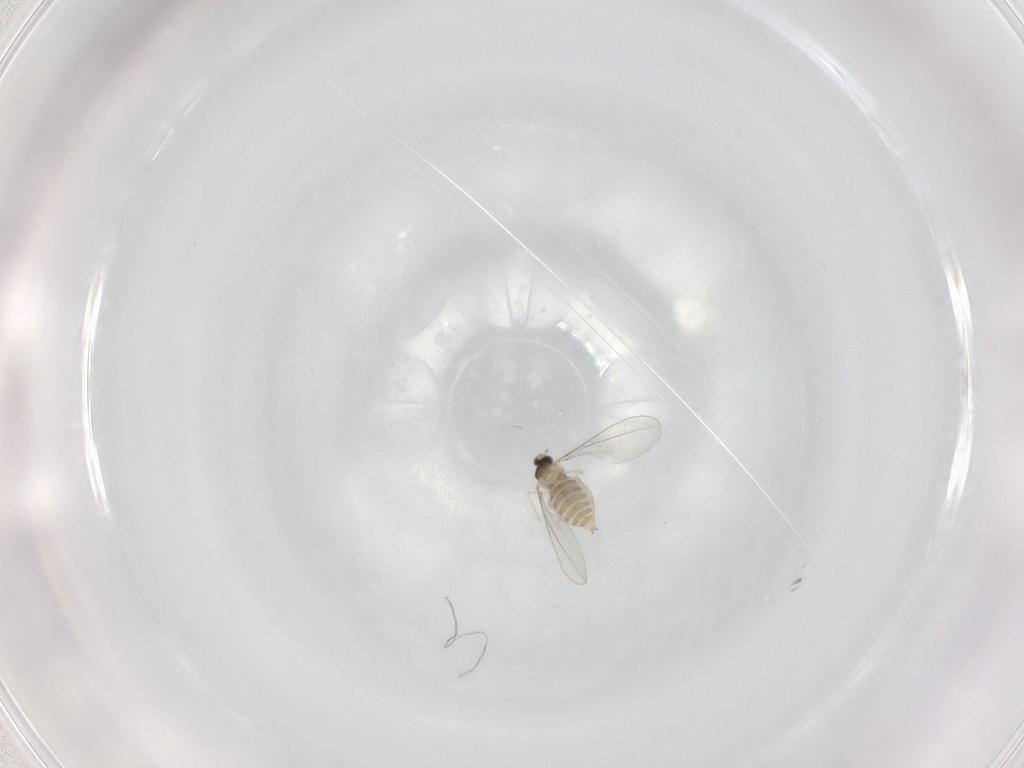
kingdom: Animalia
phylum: Arthropoda
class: Insecta
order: Diptera
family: Cecidomyiidae
